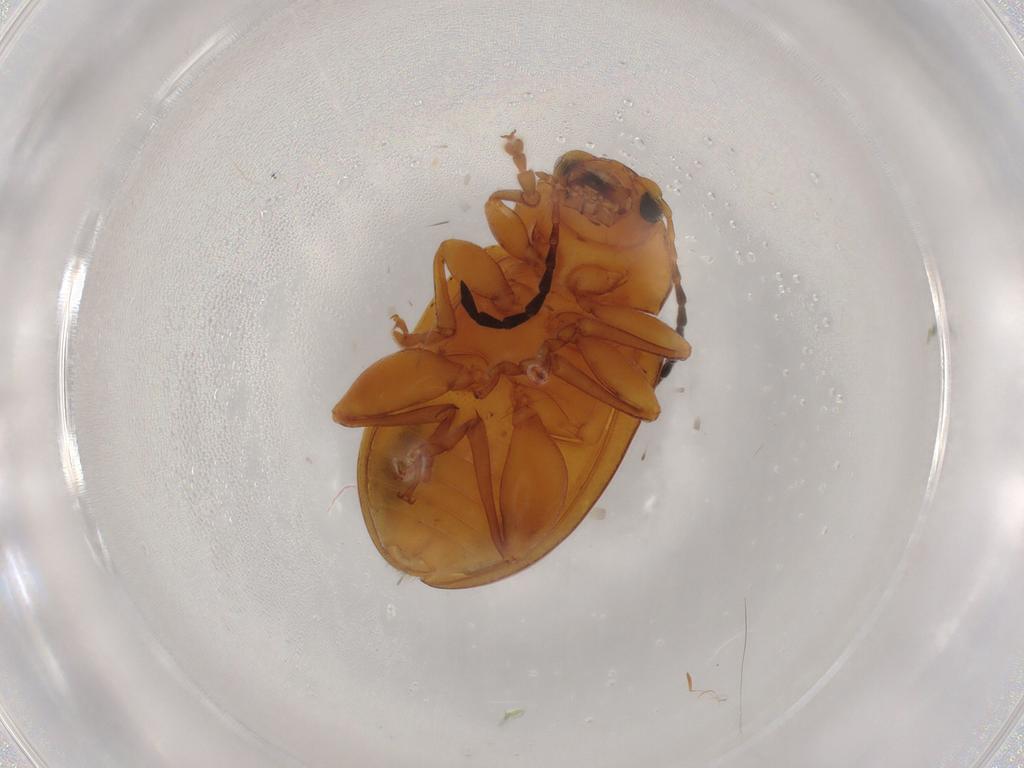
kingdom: Animalia
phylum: Arthropoda
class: Insecta
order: Coleoptera
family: Chrysomelidae
